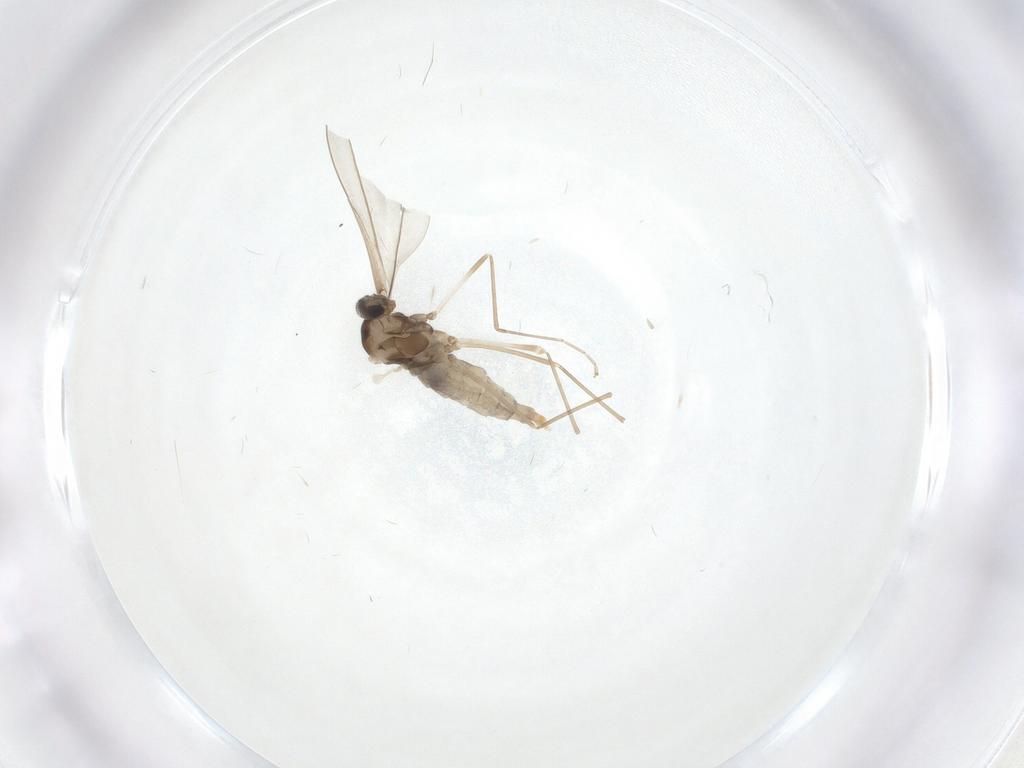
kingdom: Animalia
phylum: Arthropoda
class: Insecta
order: Diptera
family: Cecidomyiidae
